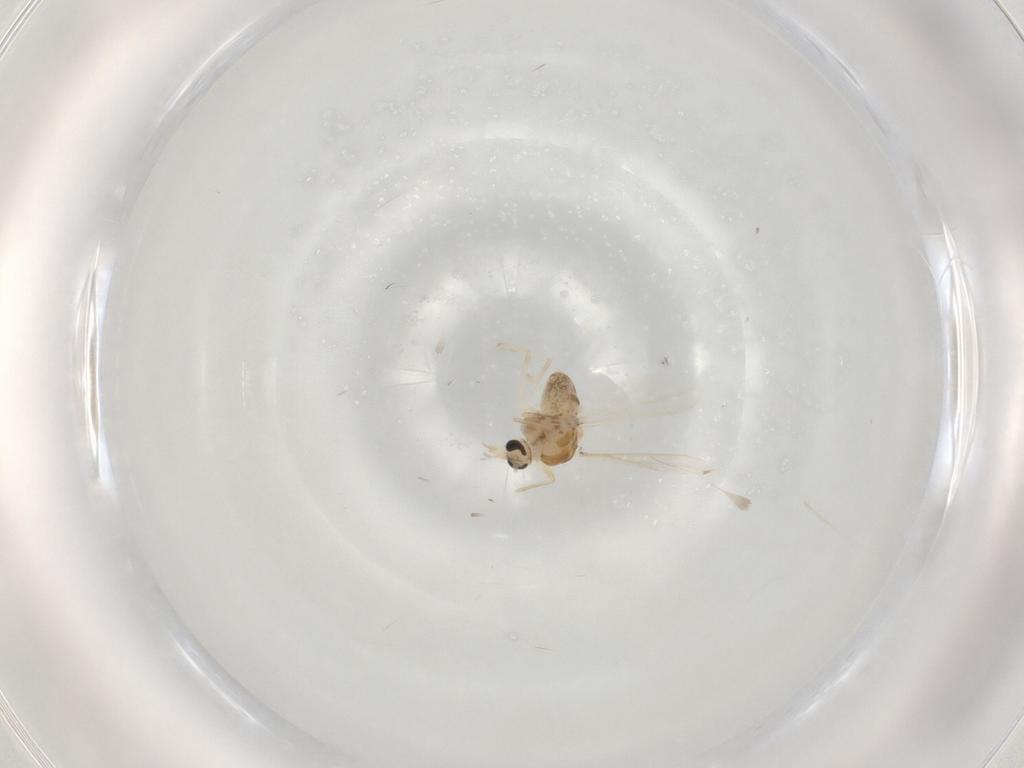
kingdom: Animalia
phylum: Arthropoda
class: Insecta
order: Diptera
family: Chironomidae
